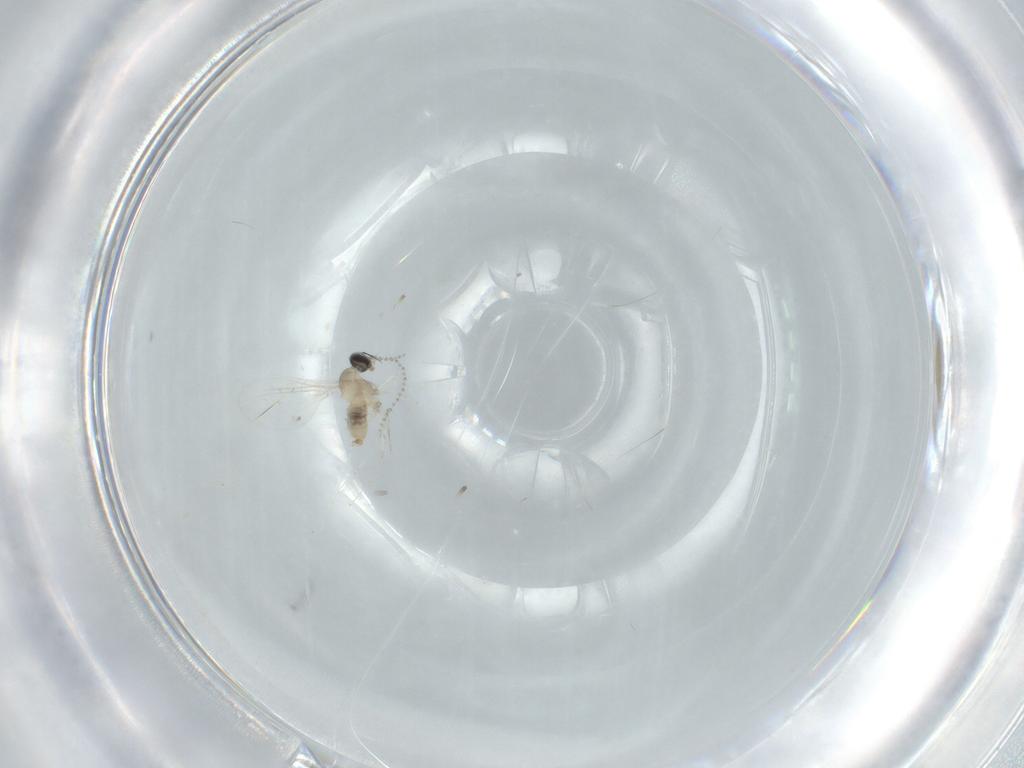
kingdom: Animalia
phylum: Arthropoda
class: Insecta
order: Diptera
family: Cecidomyiidae
